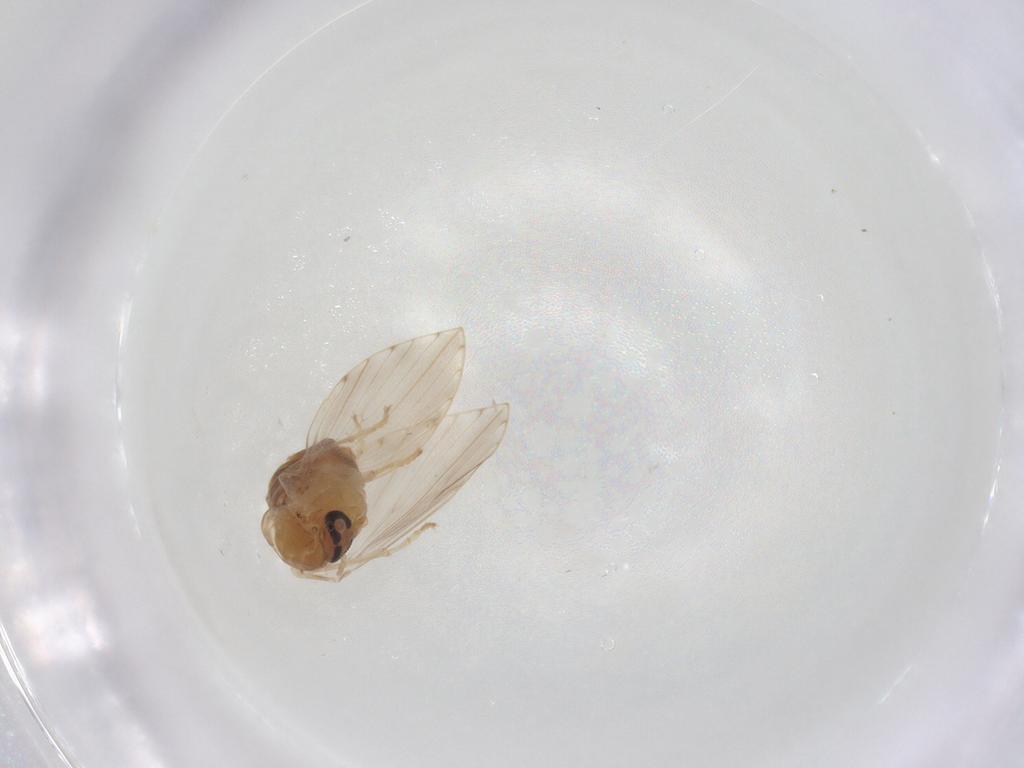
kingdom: Animalia
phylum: Arthropoda
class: Insecta
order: Diptera
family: Ceratopogonidae
